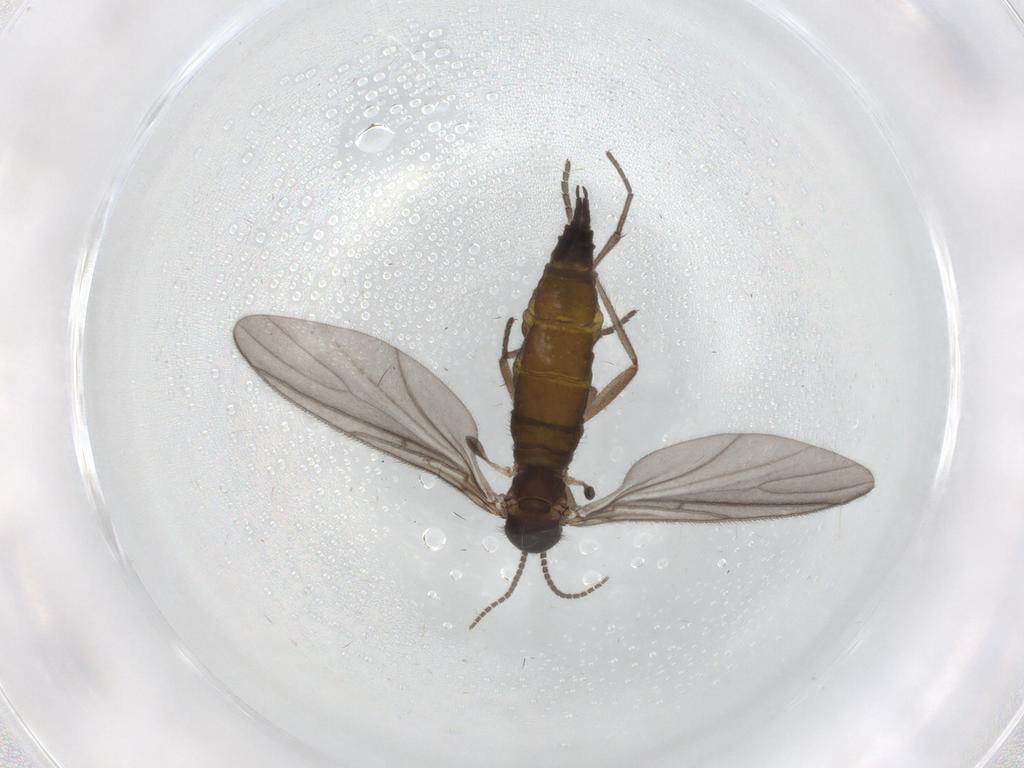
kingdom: Animalia
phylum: Arthropoda
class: Insecta
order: Diptera
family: Sciaridae
